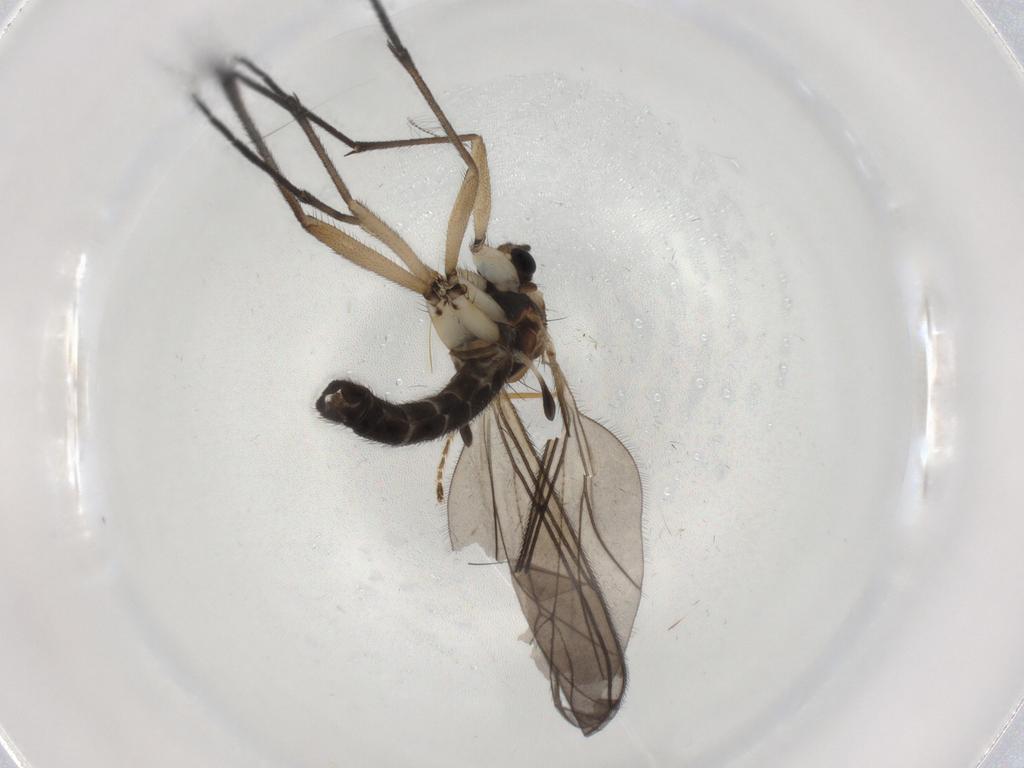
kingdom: Animalia
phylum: Arthropoda
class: Insecta
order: Diptera
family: Sciaridae
